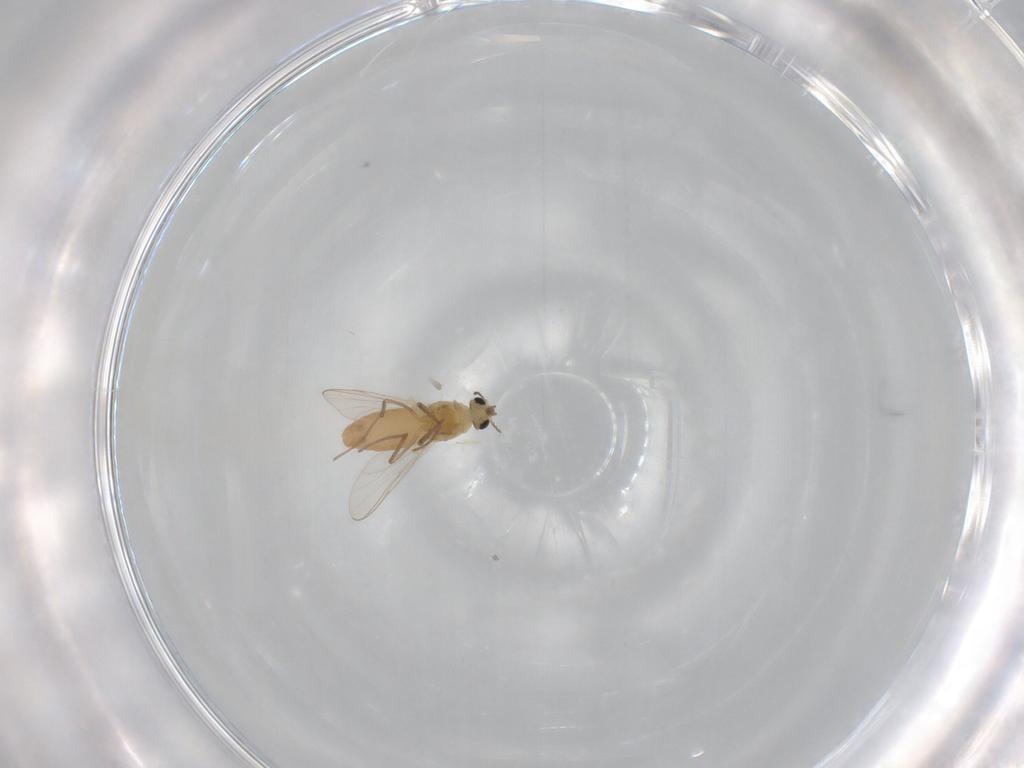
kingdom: Animalia
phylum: Arthropoda
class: Insecta
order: Diptera
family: Chironomidae
